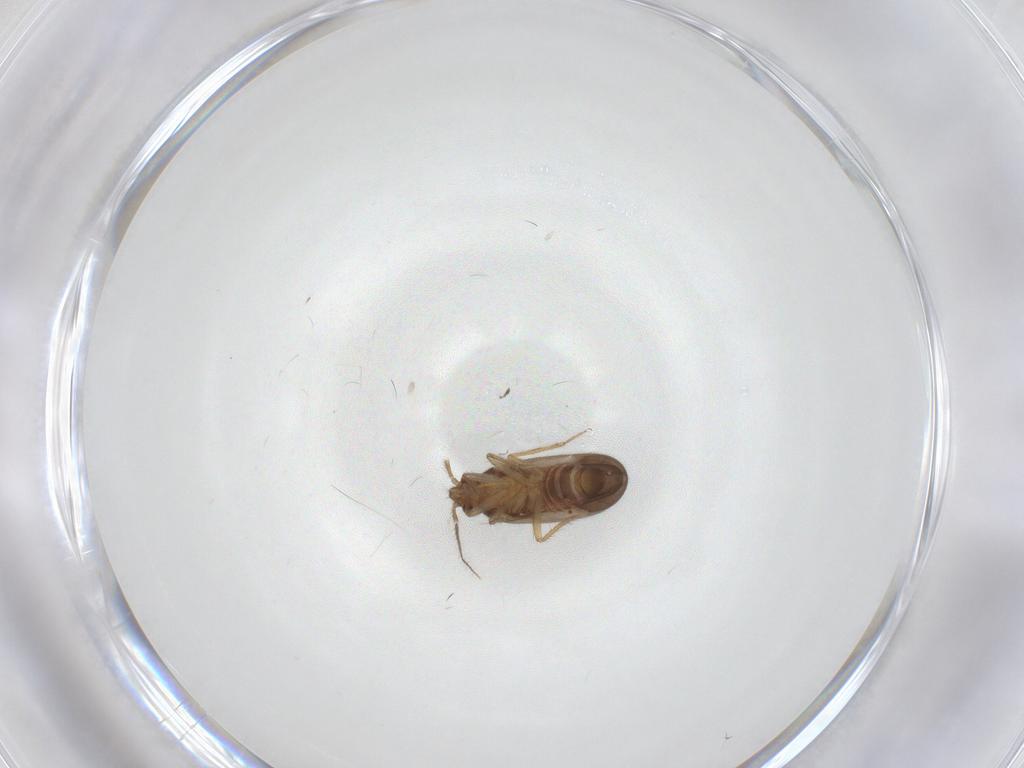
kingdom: Animalia
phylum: Arthropoda
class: Insecta
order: Hemiptera
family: Ceratocombidae
